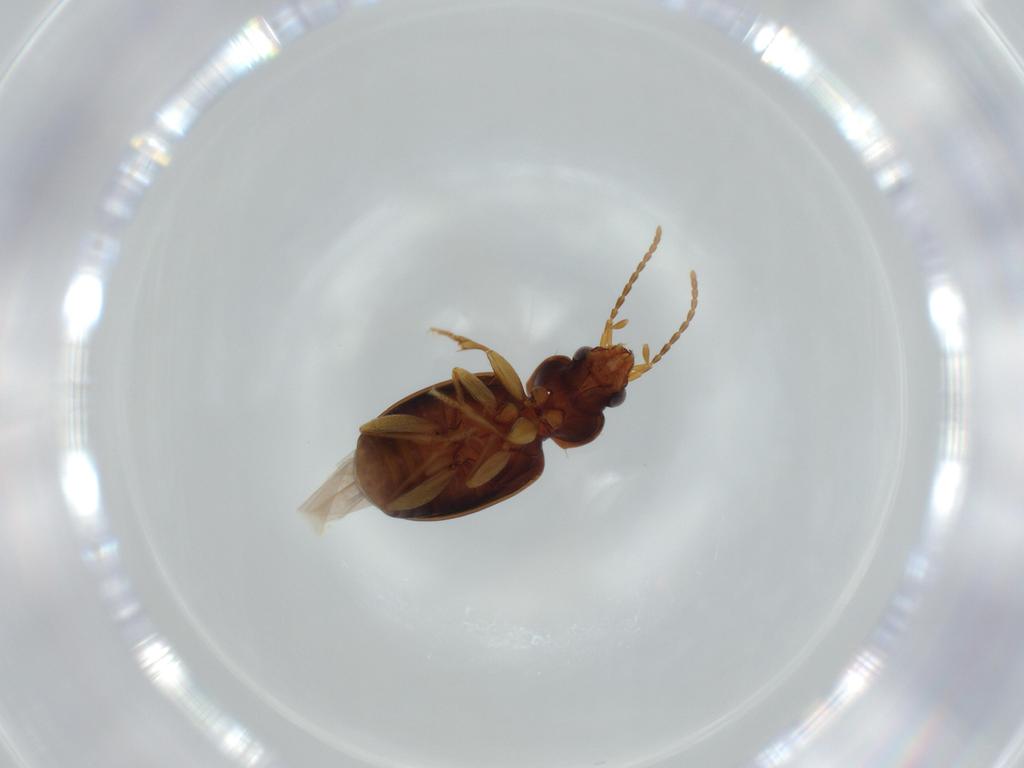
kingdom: Animalia
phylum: Arthropoda
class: Insecta
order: Coleoptera
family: Carabidae
